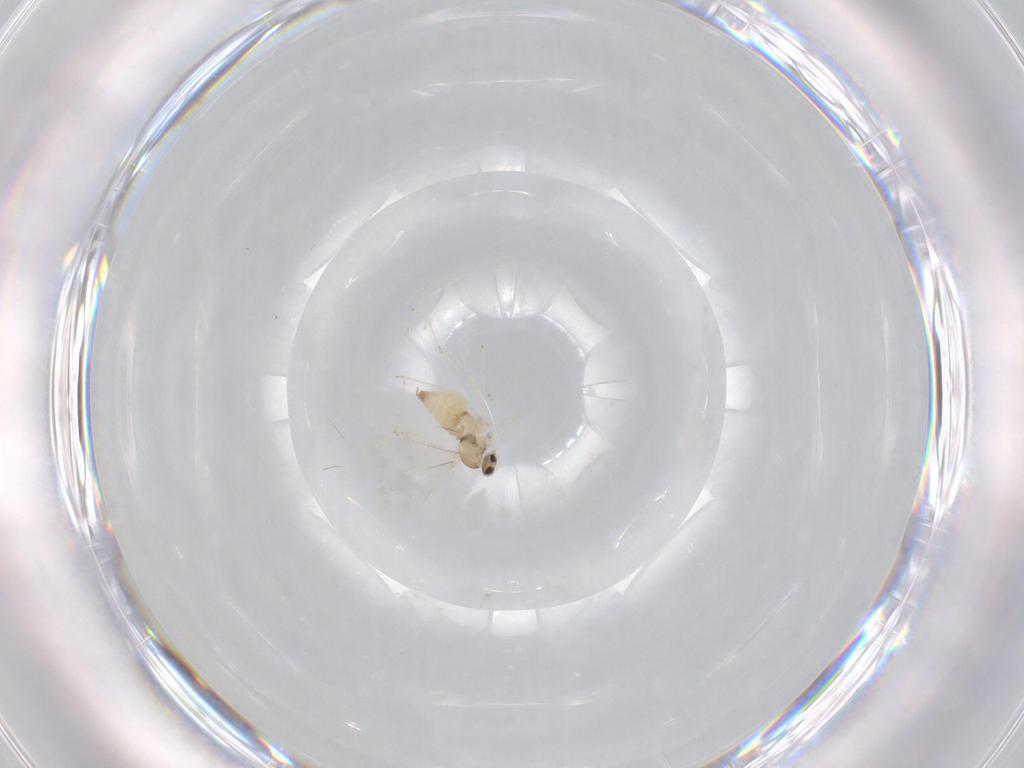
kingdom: Animalia
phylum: Arthropoda
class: Insecta
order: Diptera
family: Cecidomyiidae
